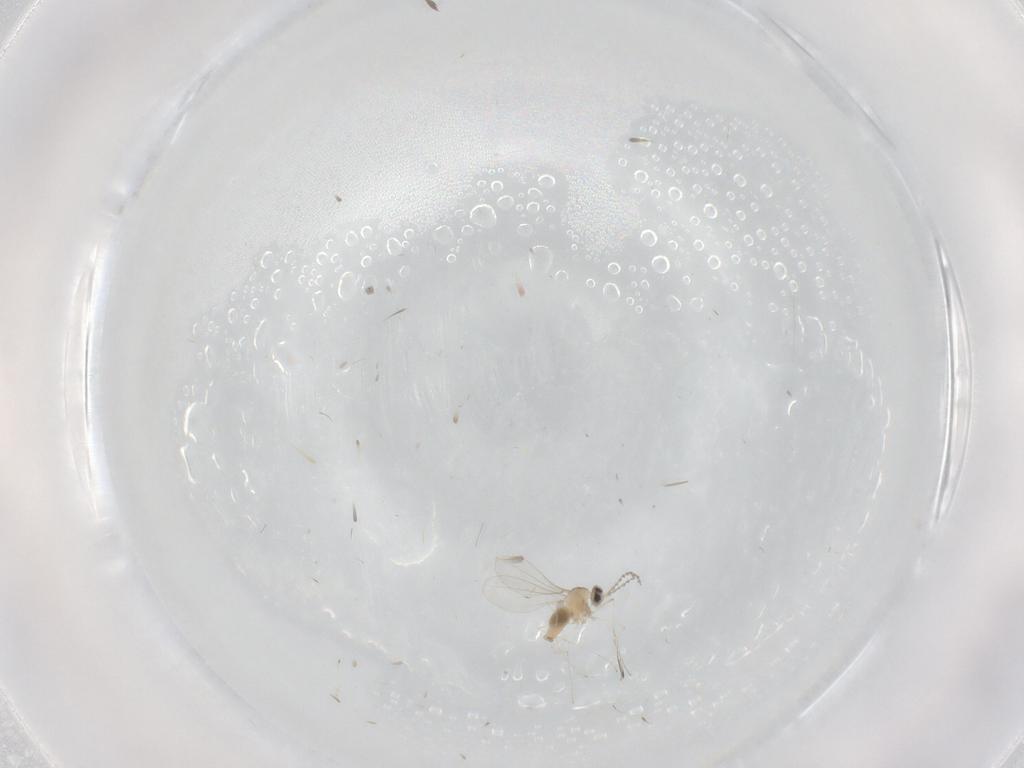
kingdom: Animalia
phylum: Arthropoda
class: Insecta
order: Diptera
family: Cecidomyiidae
